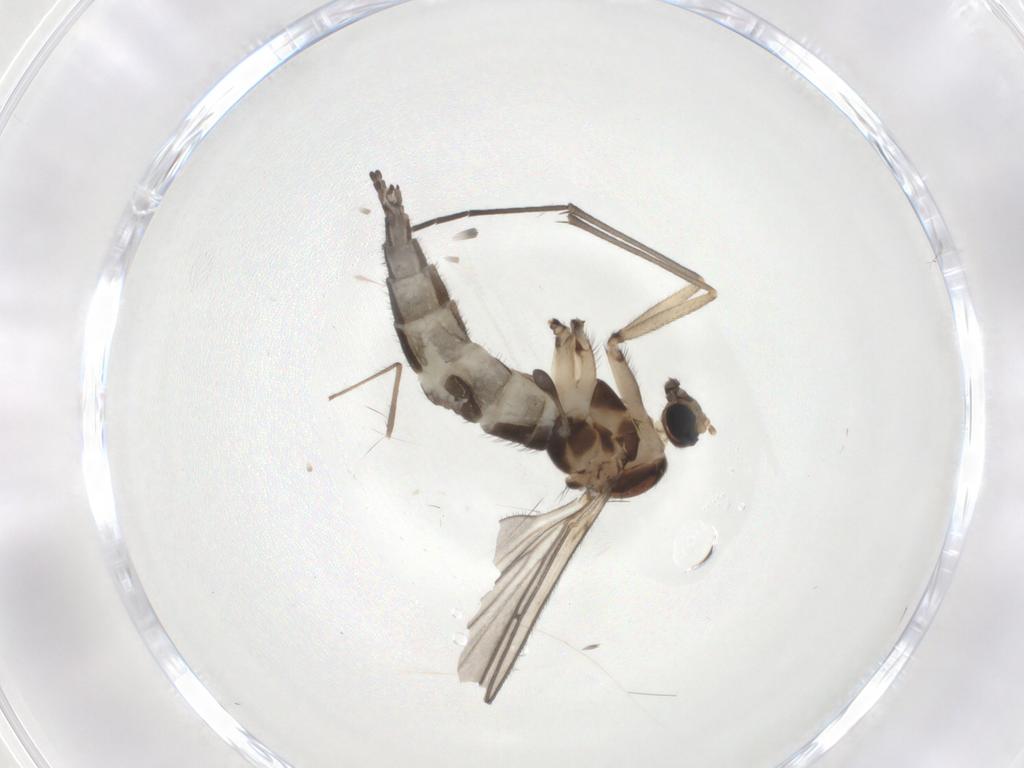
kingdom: Animalia
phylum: Arthropoda
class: Insecta
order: Diptera
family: Sciaridae
